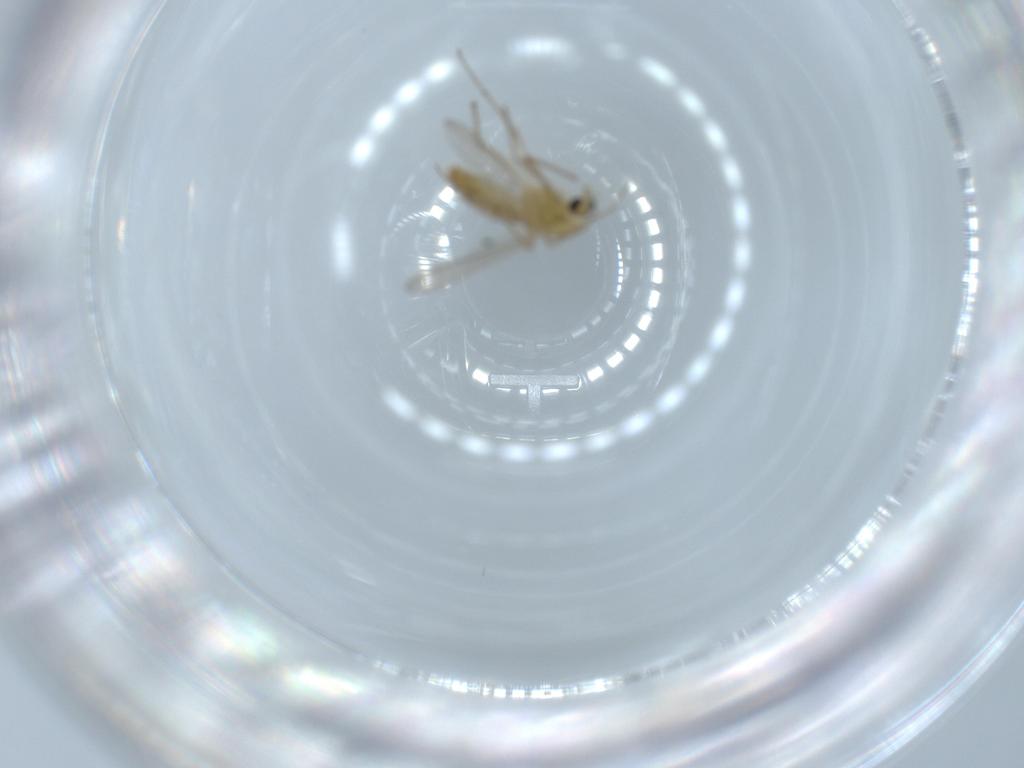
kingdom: Animalia
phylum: Arthropoda
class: Insecta
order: Diptera
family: Chironomidae
